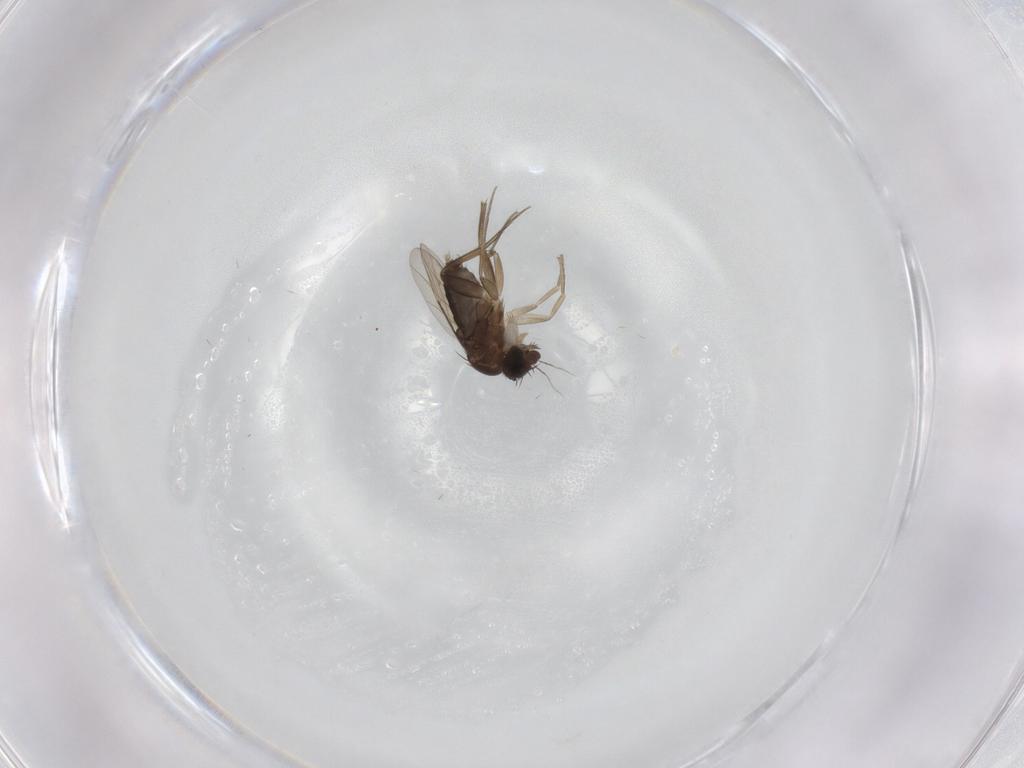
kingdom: Animalia
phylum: Arthropoda
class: Insecta
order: Diptera
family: Phoridae
